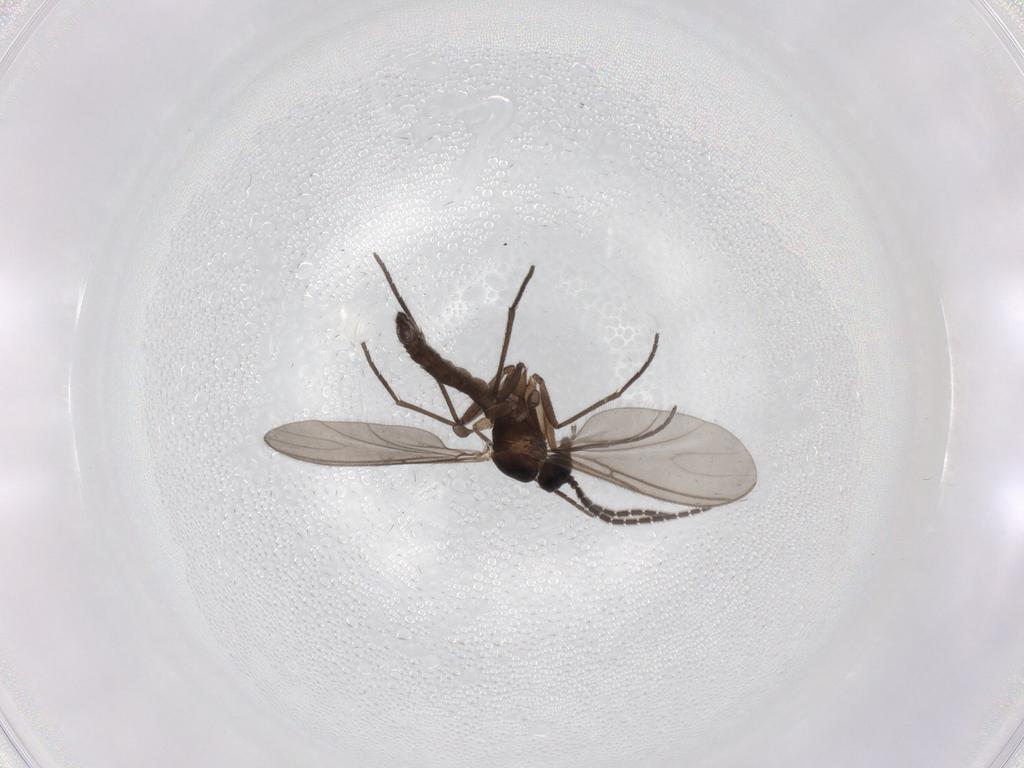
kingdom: Animalia
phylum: Arthropoda
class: Insecta
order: Diptera
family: Sciaridae
